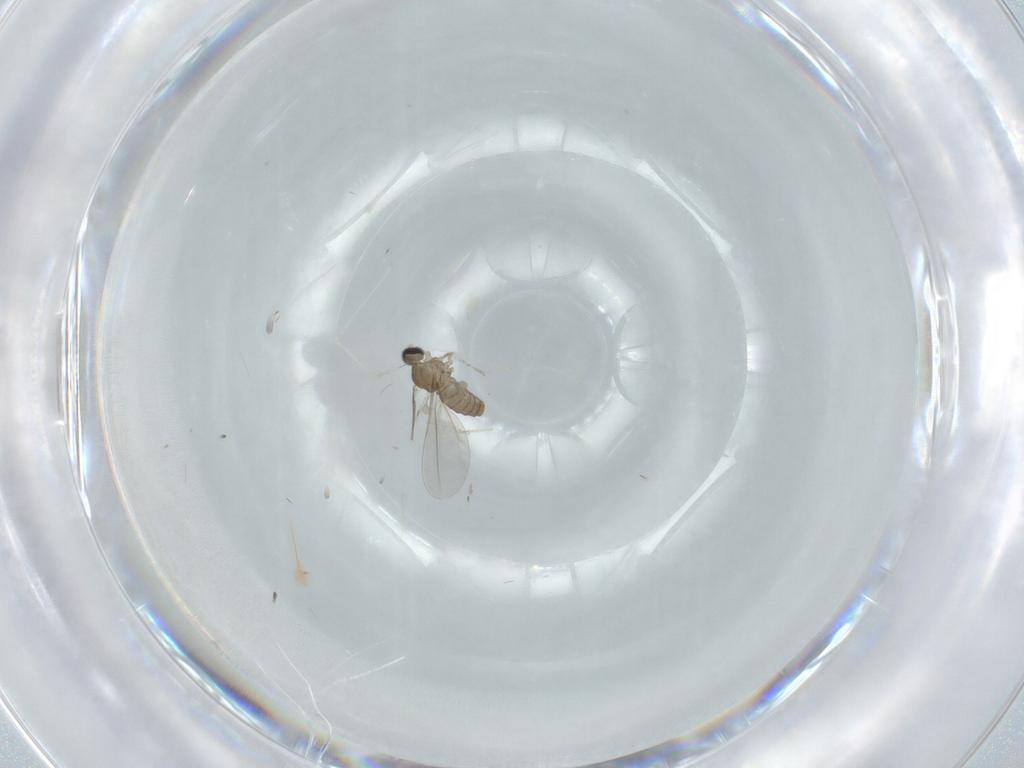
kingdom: Animalia
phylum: Arthropoda
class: Insecta
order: Diptera
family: Cecidomyiidae
